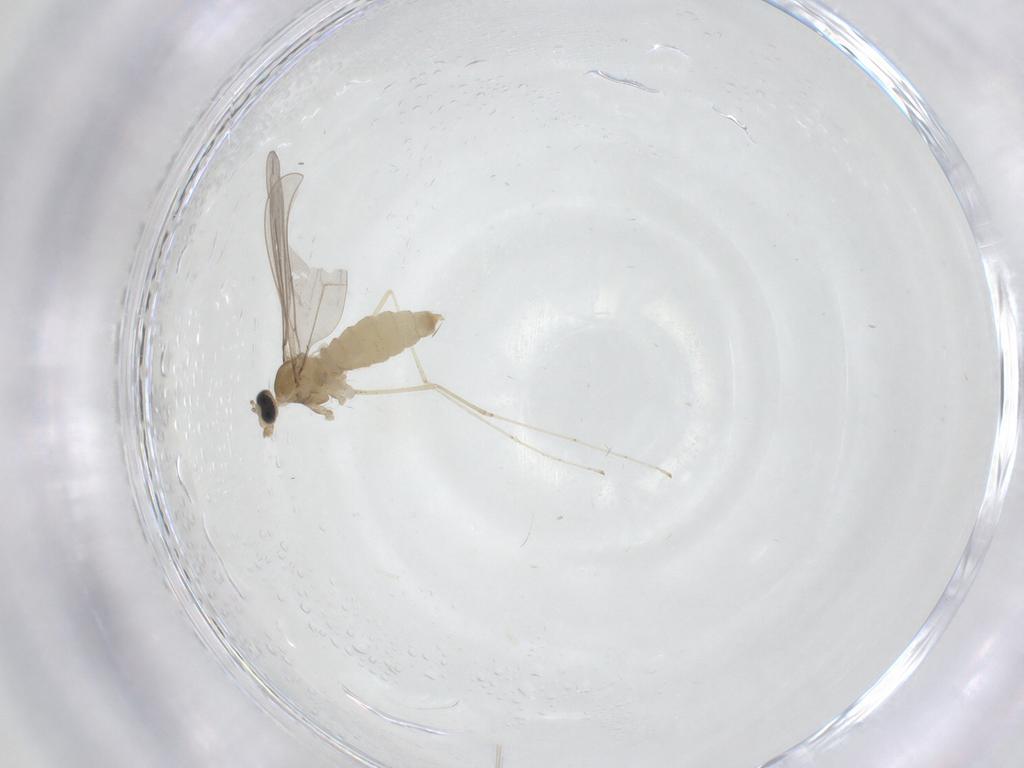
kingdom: Animalia
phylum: Arthropoda
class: Insecta
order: Diptera
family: Cecidomyiidae
